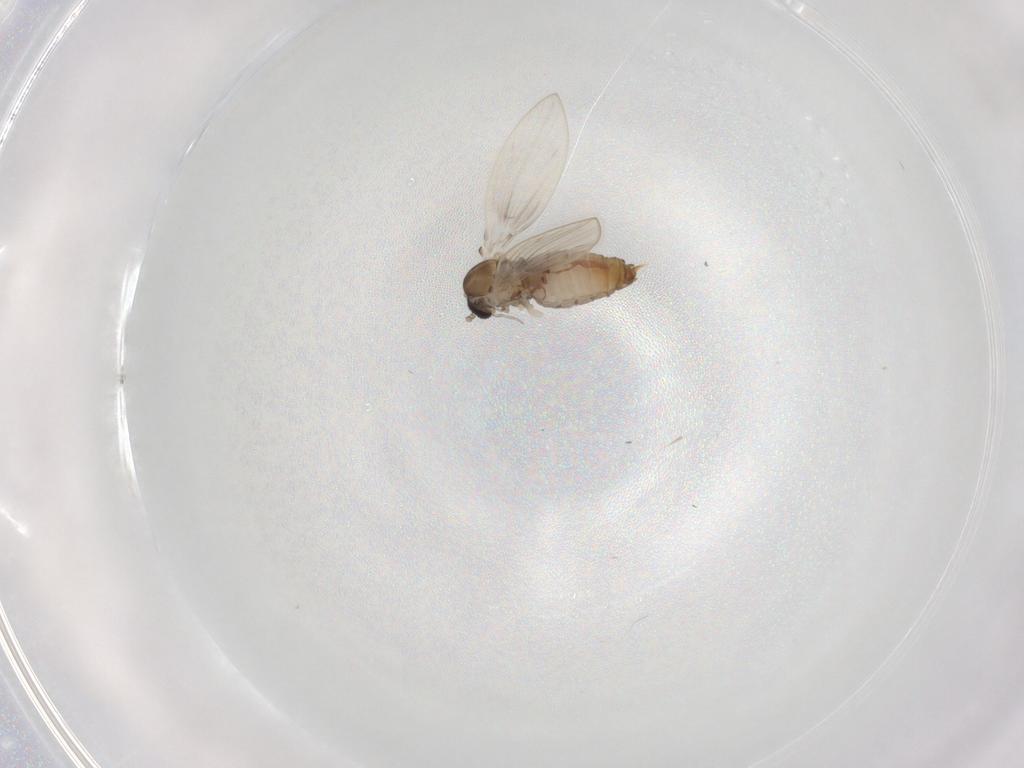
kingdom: Animalia
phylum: Arthropoda
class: Insecta
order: Diptera
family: Psychodidae
